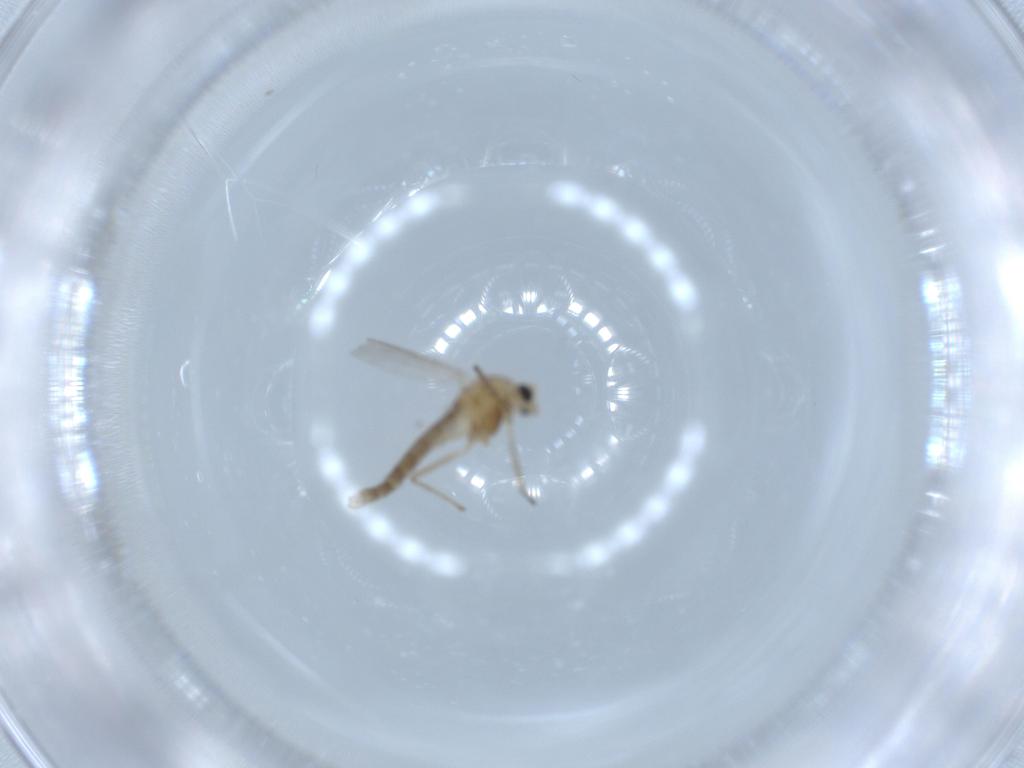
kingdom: Animalia
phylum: Arthropoda
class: Insecta
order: Diptera
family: Chironomidae
